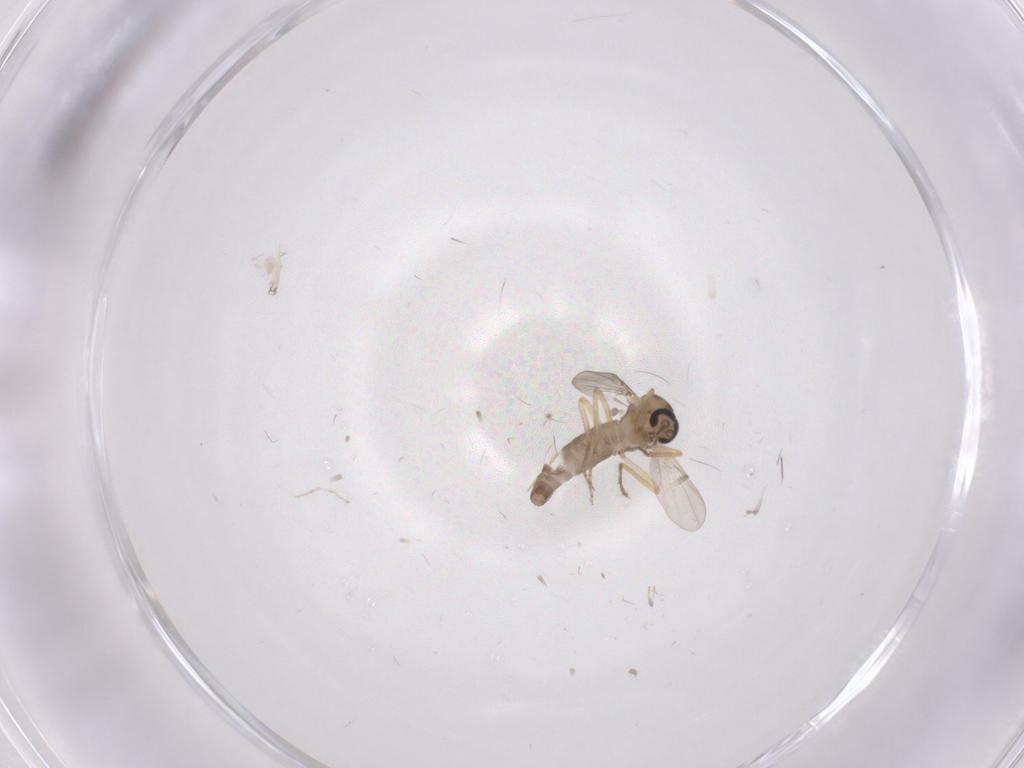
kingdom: Animalia
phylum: Arthropoda
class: Insecta
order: Diptera
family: Ceratopogonidae
